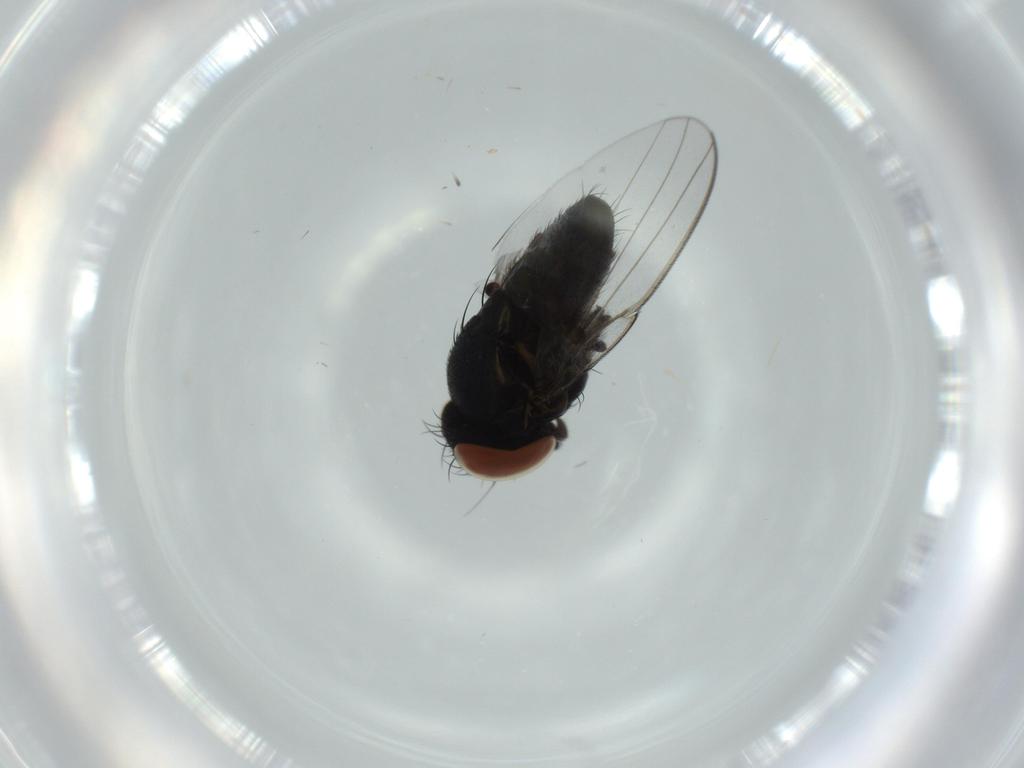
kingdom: Animalia
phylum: Arthropoda
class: Insecta
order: Diptera
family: Milichiidae
